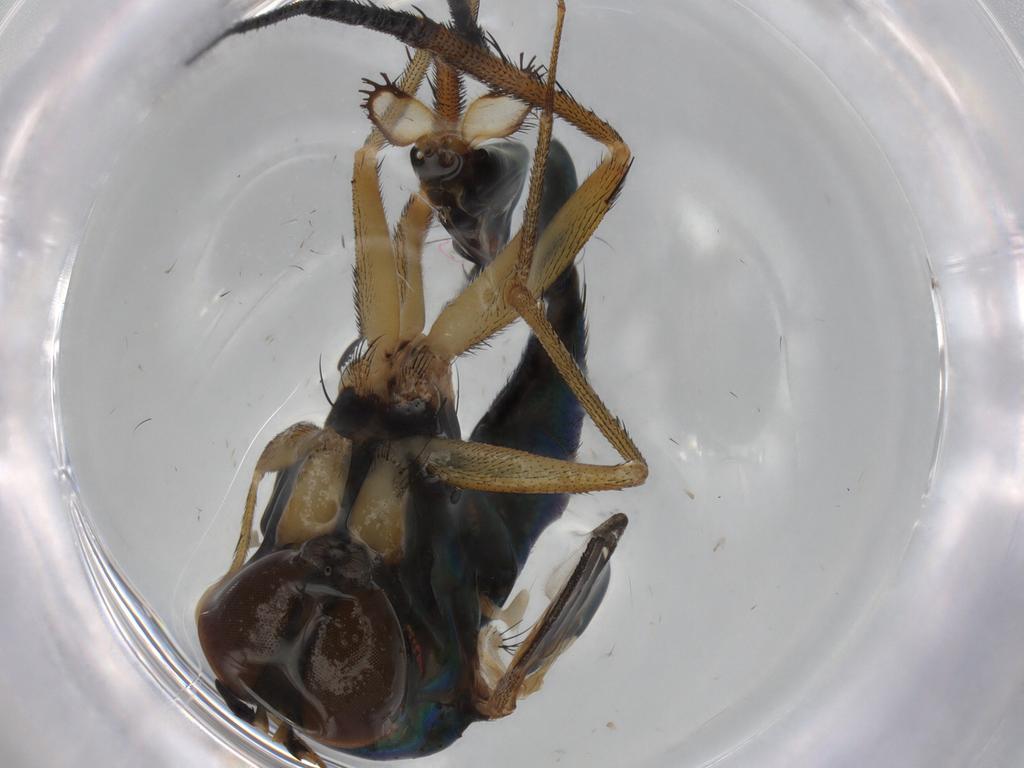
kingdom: Animalia
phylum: Arthropoda
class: Insecta
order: Diptera
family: Dolichopodidae
